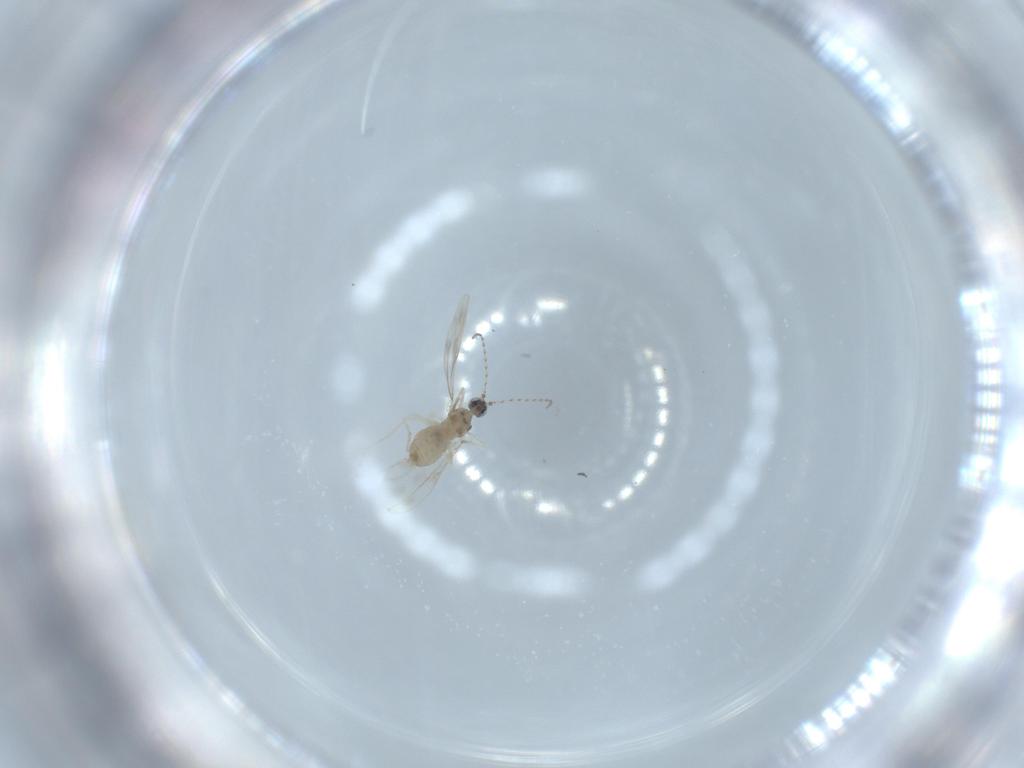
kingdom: Animalia
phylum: Arthropoda
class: Insecta
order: Diptera
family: Cecidomyiidae
